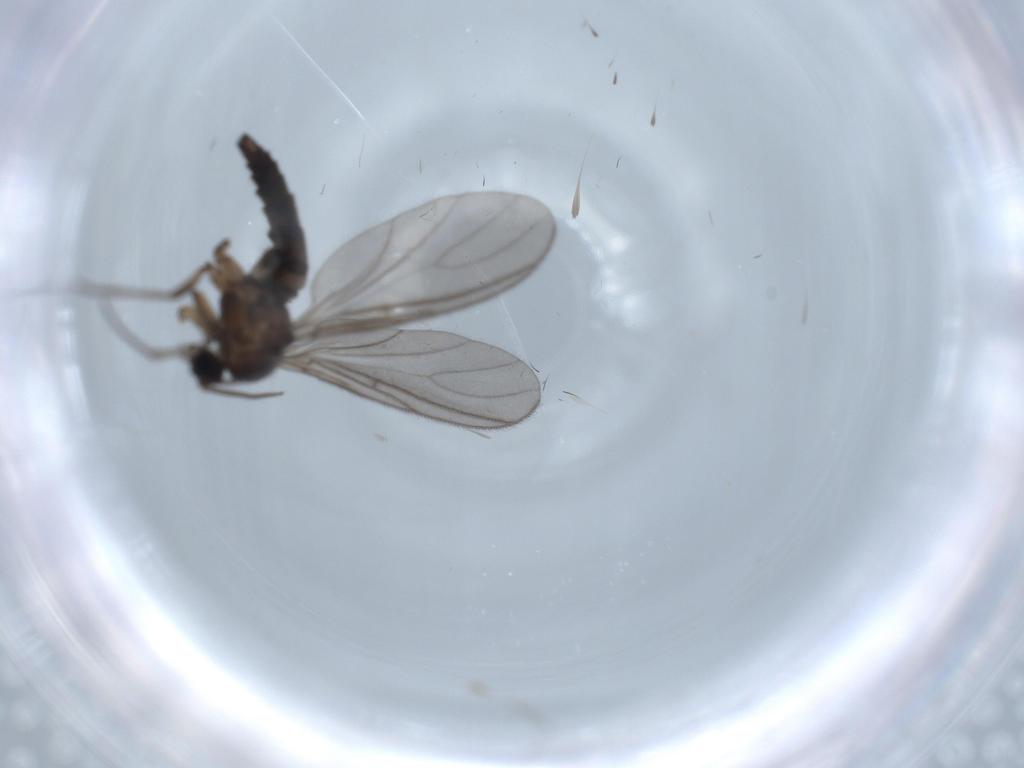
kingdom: Animalia
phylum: Arthropoda
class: Insecta
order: Diptera
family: Sciaridae
